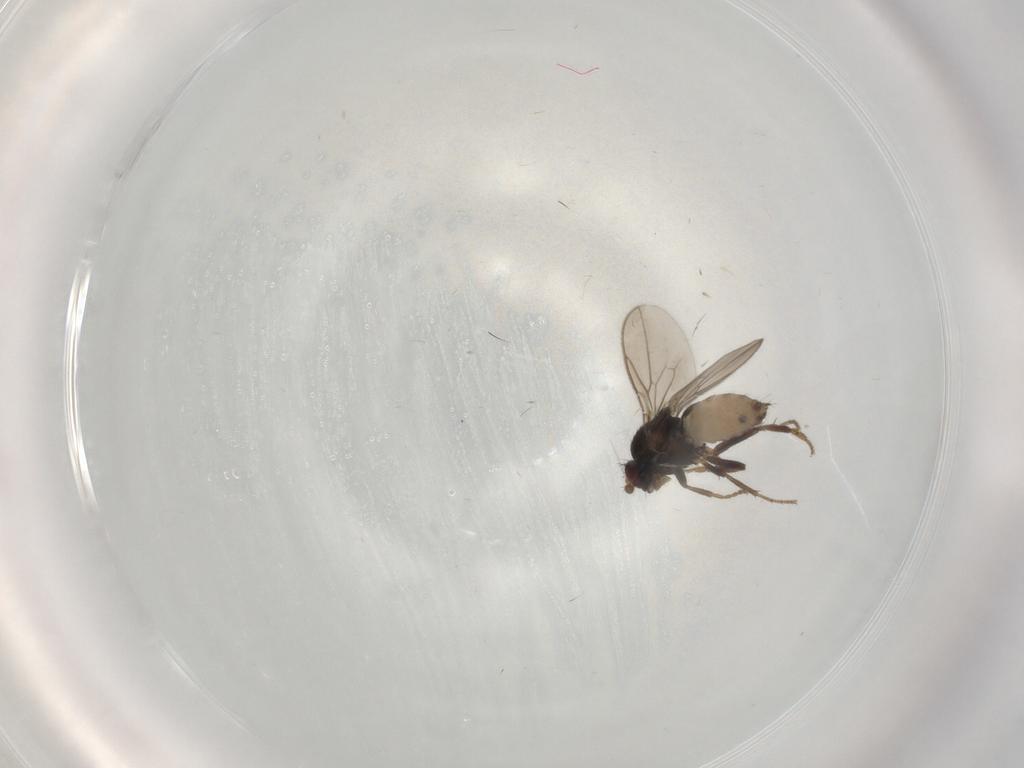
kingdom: Animalia
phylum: Arthropoda
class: Insecta
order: Diptera
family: Sphaeroceridae
